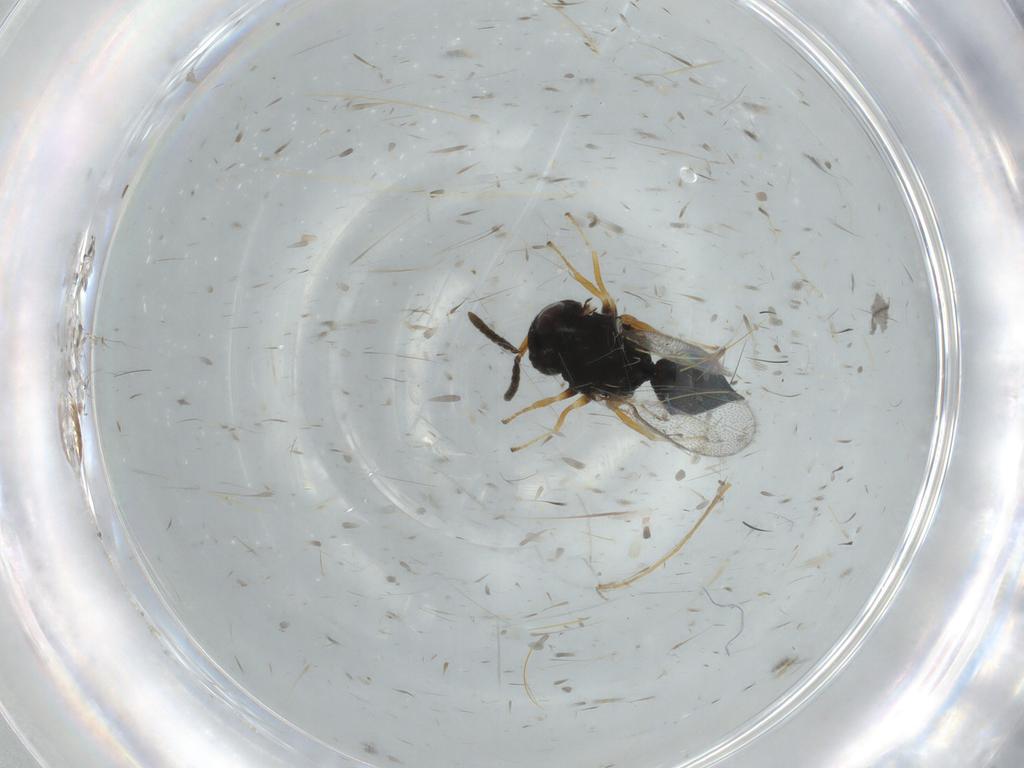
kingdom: Animalia
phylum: Arthropoda
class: Insecta
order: Hymenoptera
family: Pteromalidae
